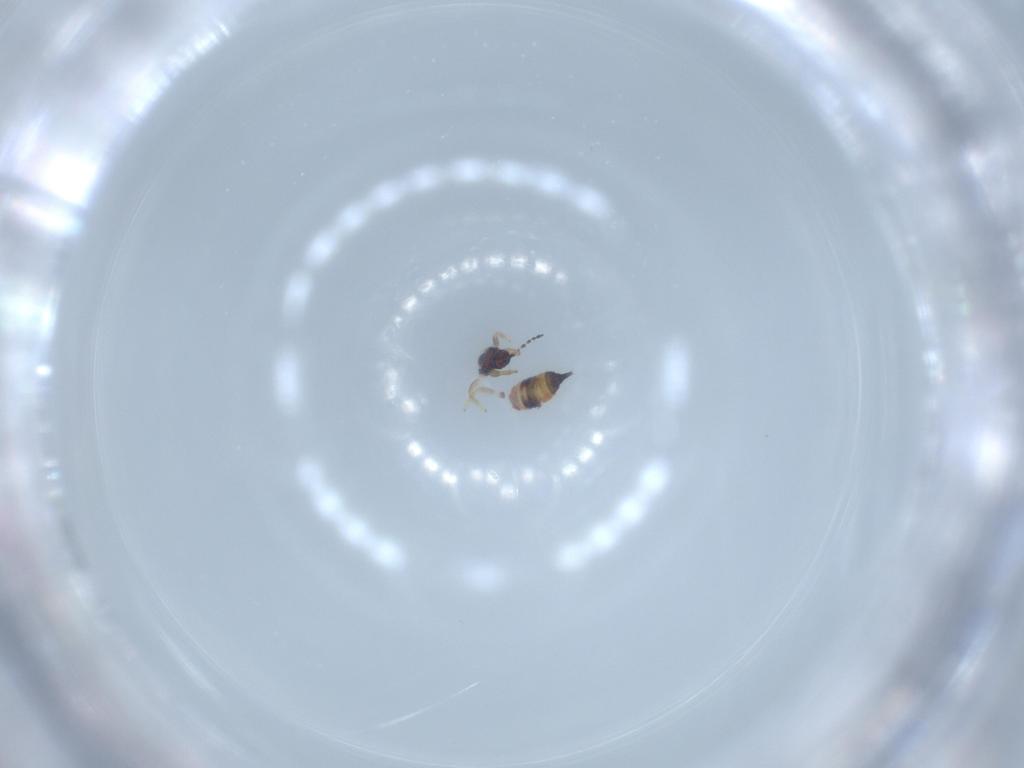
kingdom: Animalia
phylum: Arthropoda
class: Insecta
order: Thysanoptera
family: Phlaeothripidae
